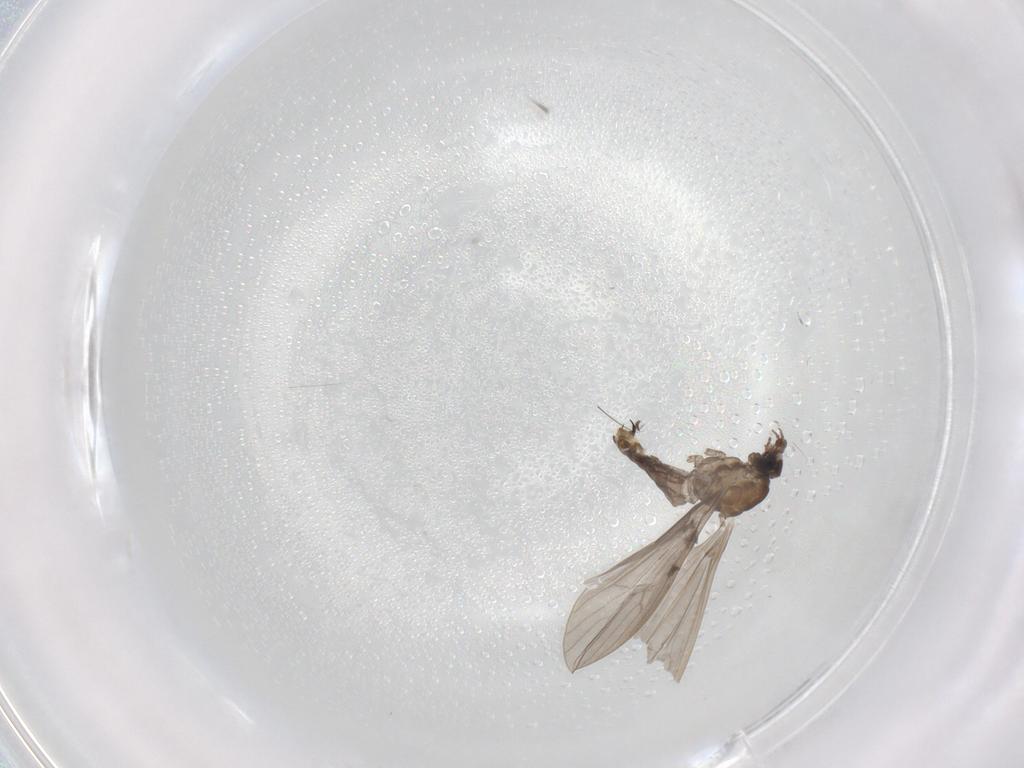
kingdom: Animalia
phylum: Arthropoda
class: Insecta
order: Diptera
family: Limoniidae
